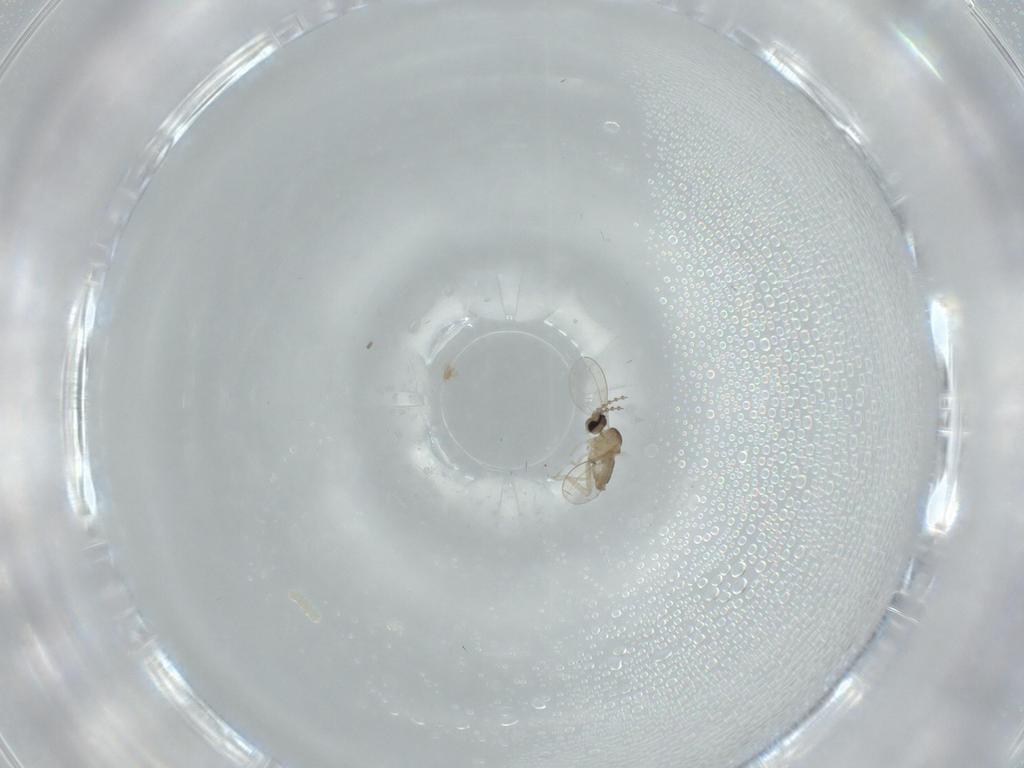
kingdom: Animalia
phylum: Arthropoda
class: Insecta
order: Diptera
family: Cecidomyiidae
